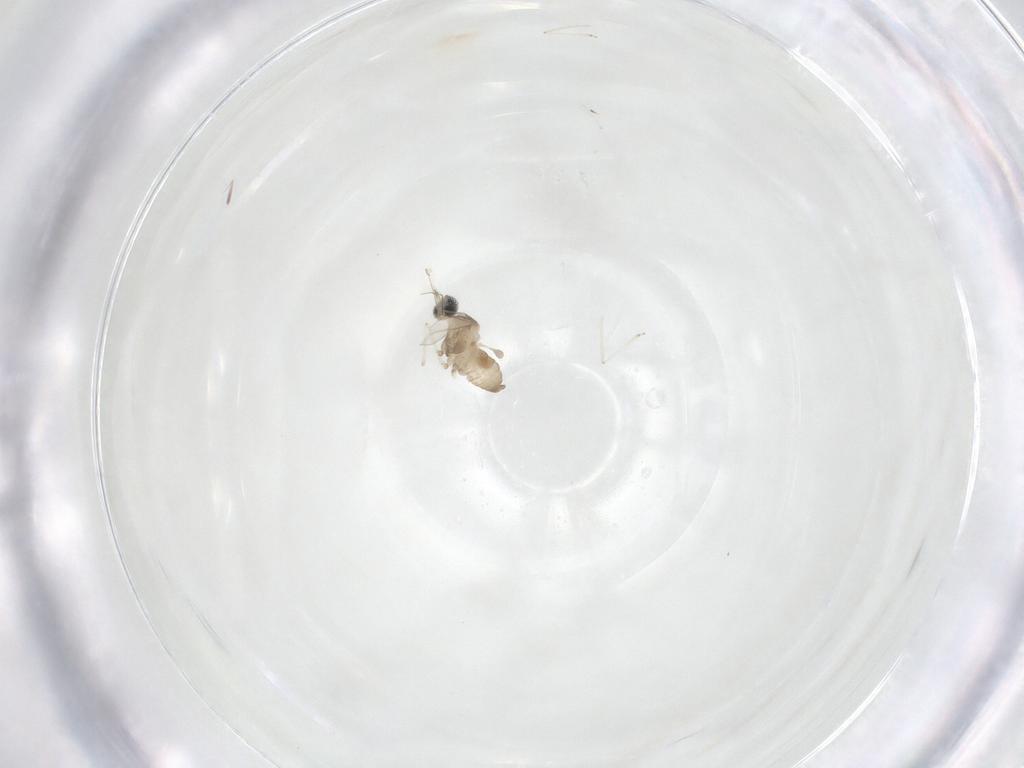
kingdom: Animalia
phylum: Arthropoda
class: Insecta
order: Diptera
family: Cecidomyiidae
